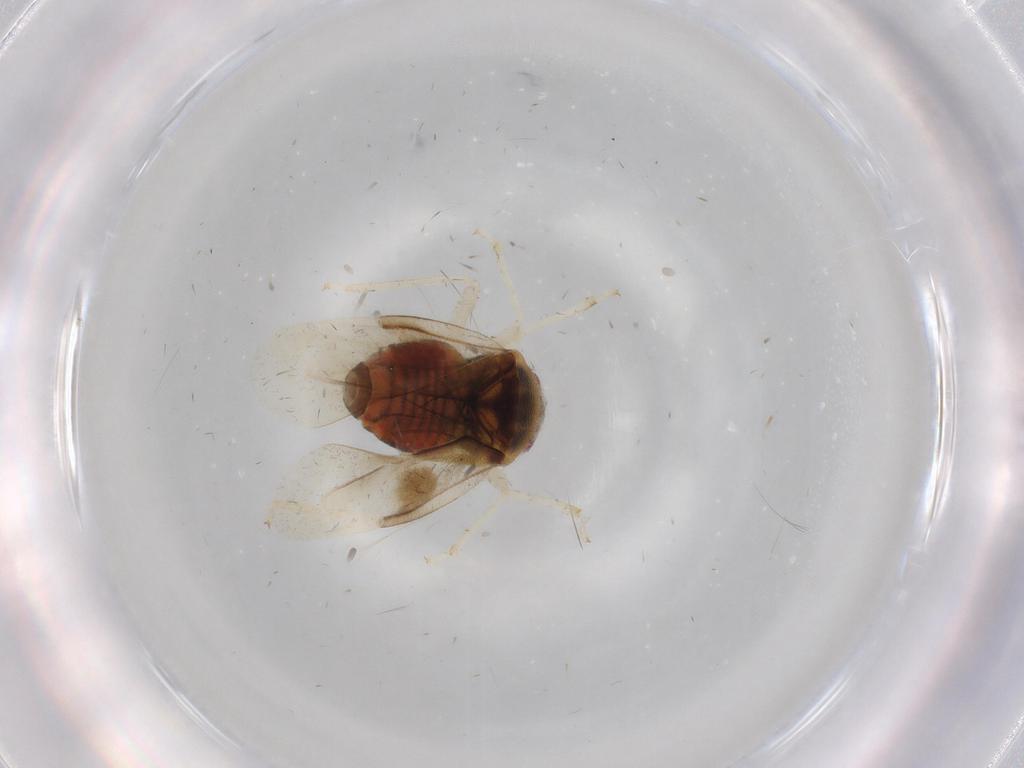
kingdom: Animalia
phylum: Arthropoda
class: Insecta
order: Hemiptera
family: Miridae
